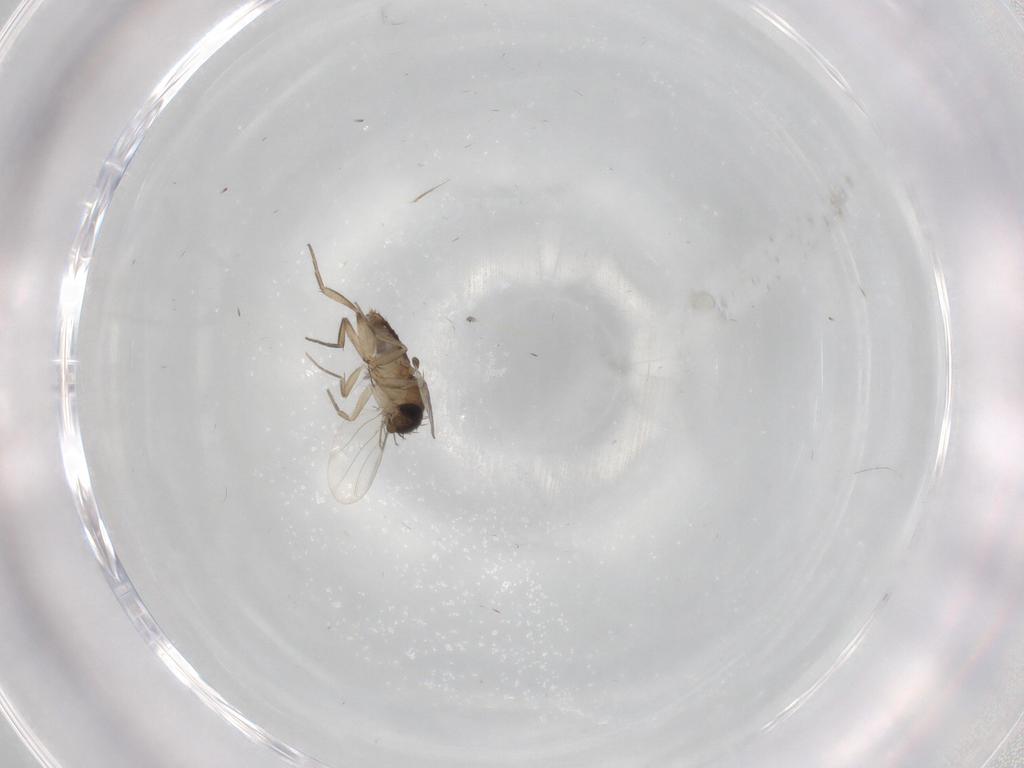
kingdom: Animalia
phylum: Arthropoda
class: Insecta
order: Diptera
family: Phoridae
